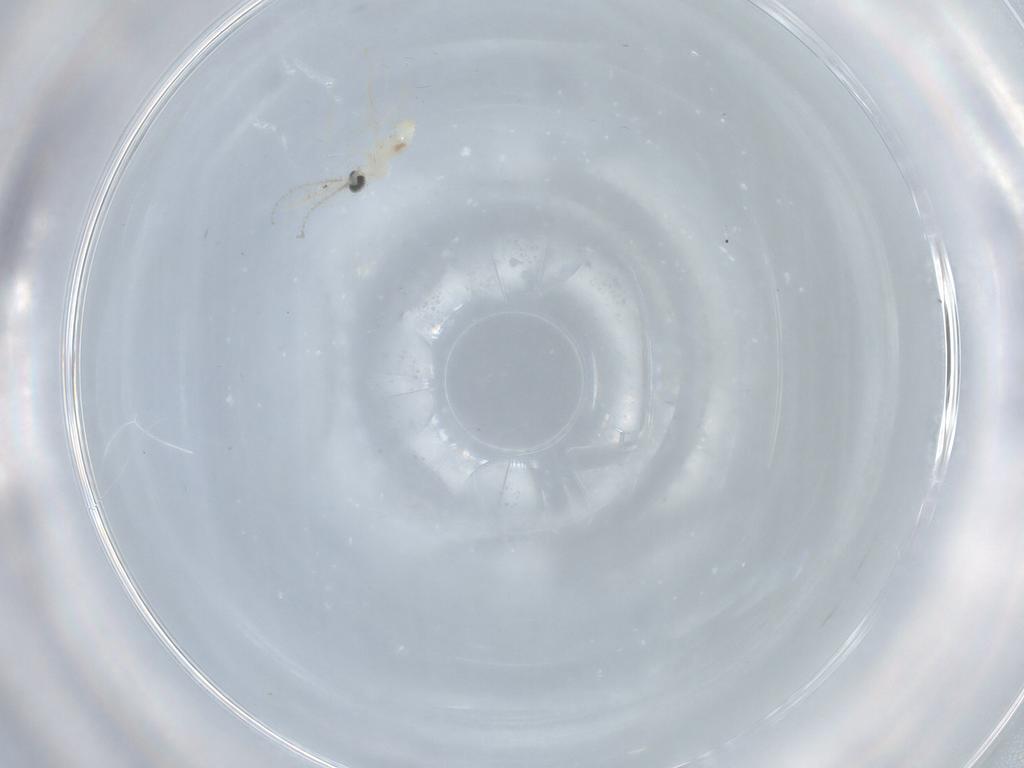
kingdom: Animalia
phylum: Arthropoda
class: Insecta
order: Diptera
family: Cecidomyiidae
